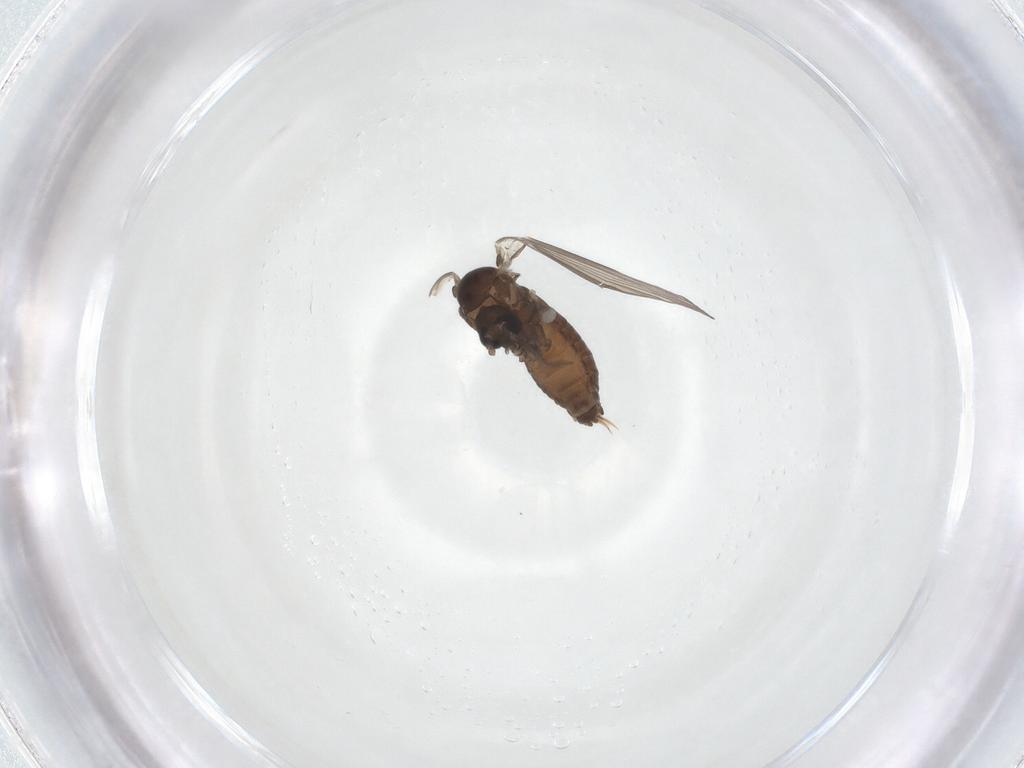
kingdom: Animalia
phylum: Arthropoda
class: Insecta
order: Diptera
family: Psychodidae
